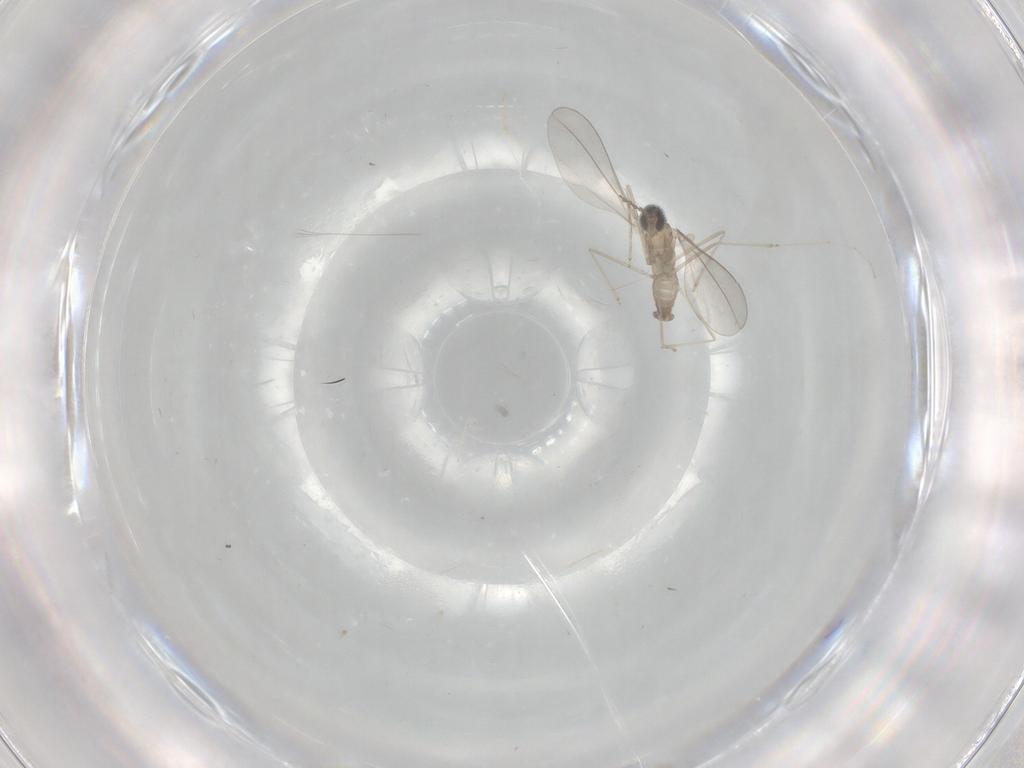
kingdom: Animalia
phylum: Arthropoda
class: Insecta
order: Diptera
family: Cecidomyiidae
